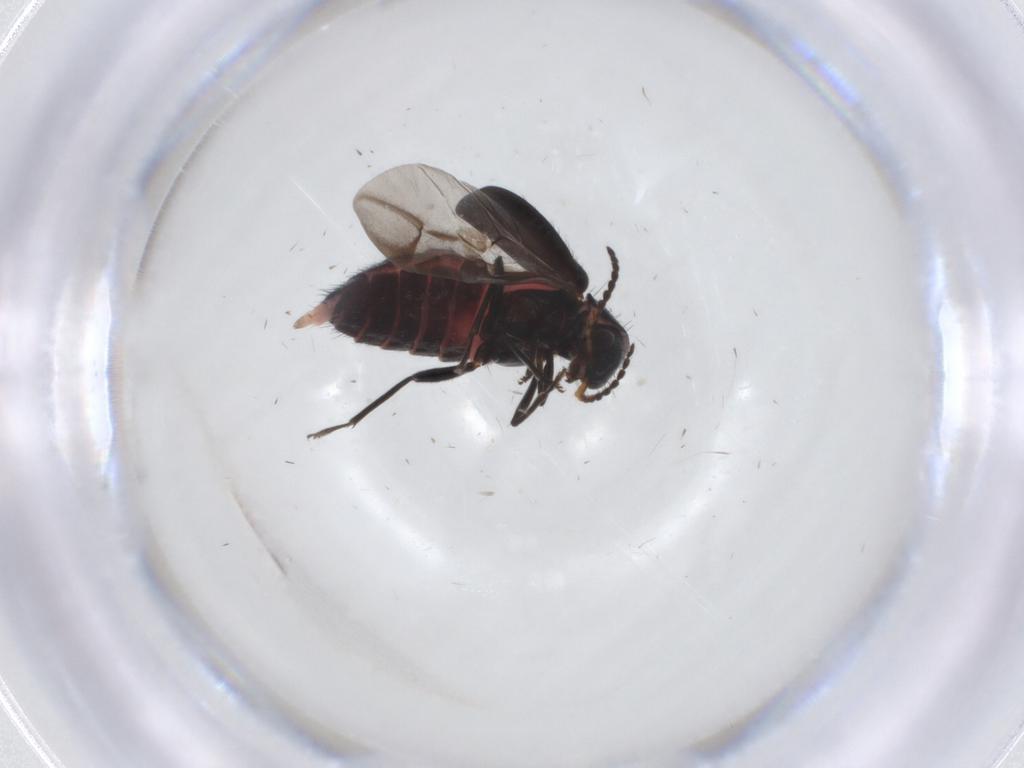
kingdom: Animalia
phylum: Arthropoda
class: Insecta
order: Coleoptera
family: Melyridae
